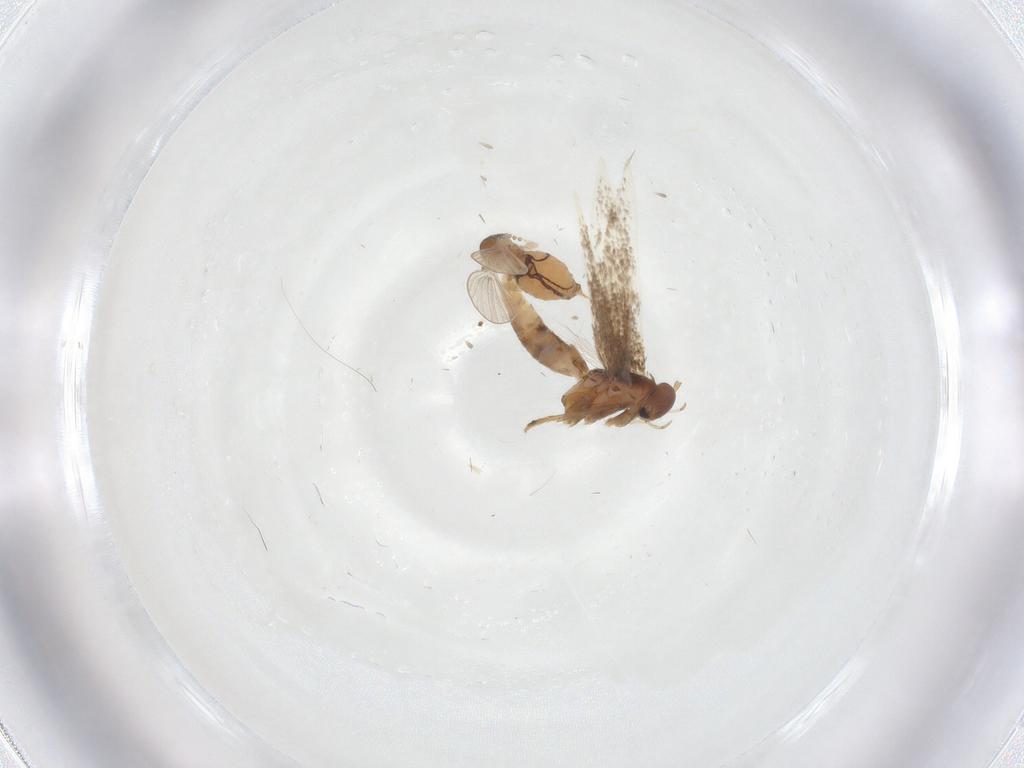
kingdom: Animalia
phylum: Arthropoda
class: Insecta
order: Lepidoptera
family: Gelechiidae
